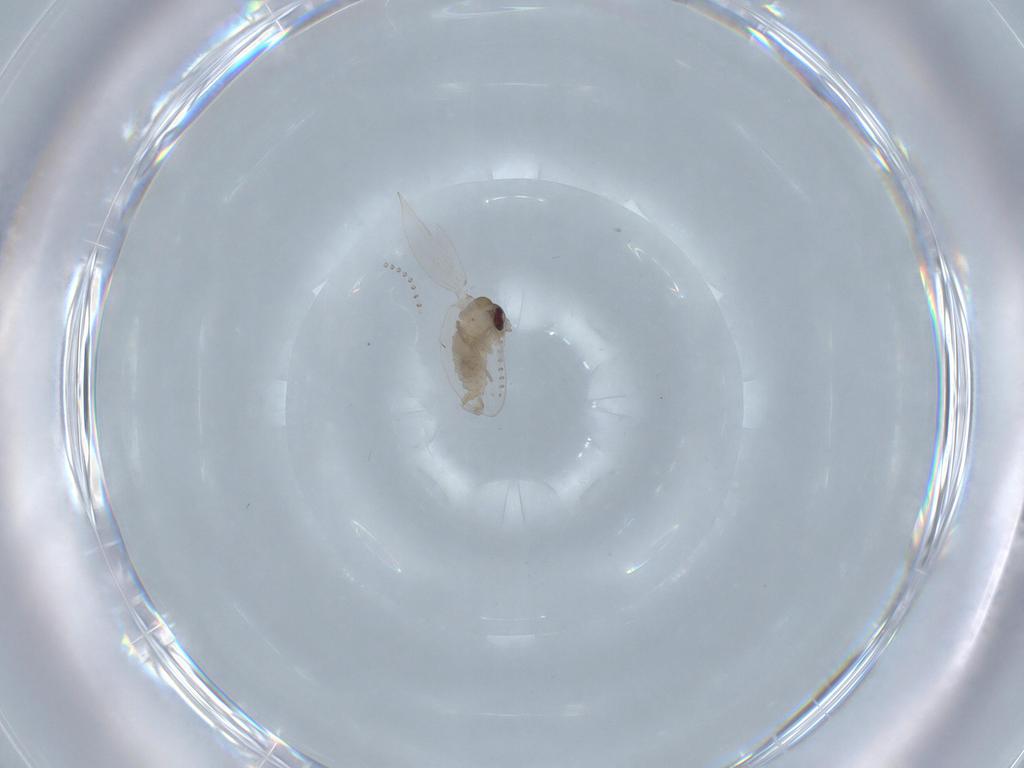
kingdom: Animalia
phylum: Arthropoda
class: Insecta
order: Diptera
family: Psychodidae
